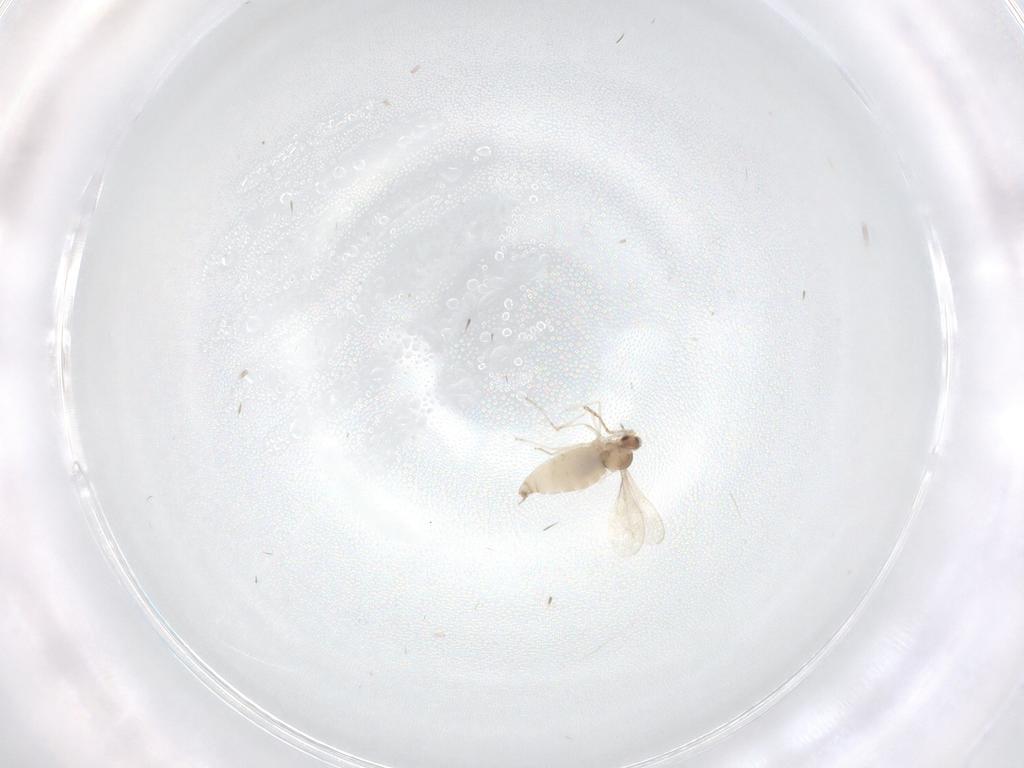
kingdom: Animalia
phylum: Arthropoda
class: Insecta
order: Diptera
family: Cecidomyiidae
